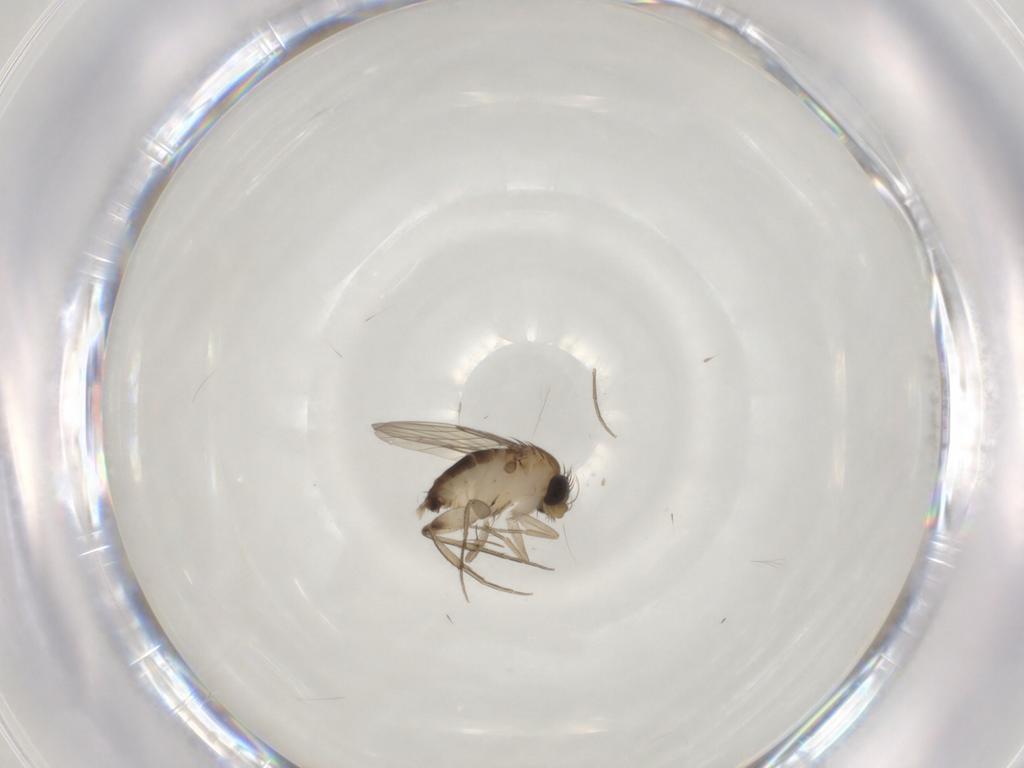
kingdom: Animalia
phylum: Arthropoda
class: Insecta
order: Diptera
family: Phoridae
